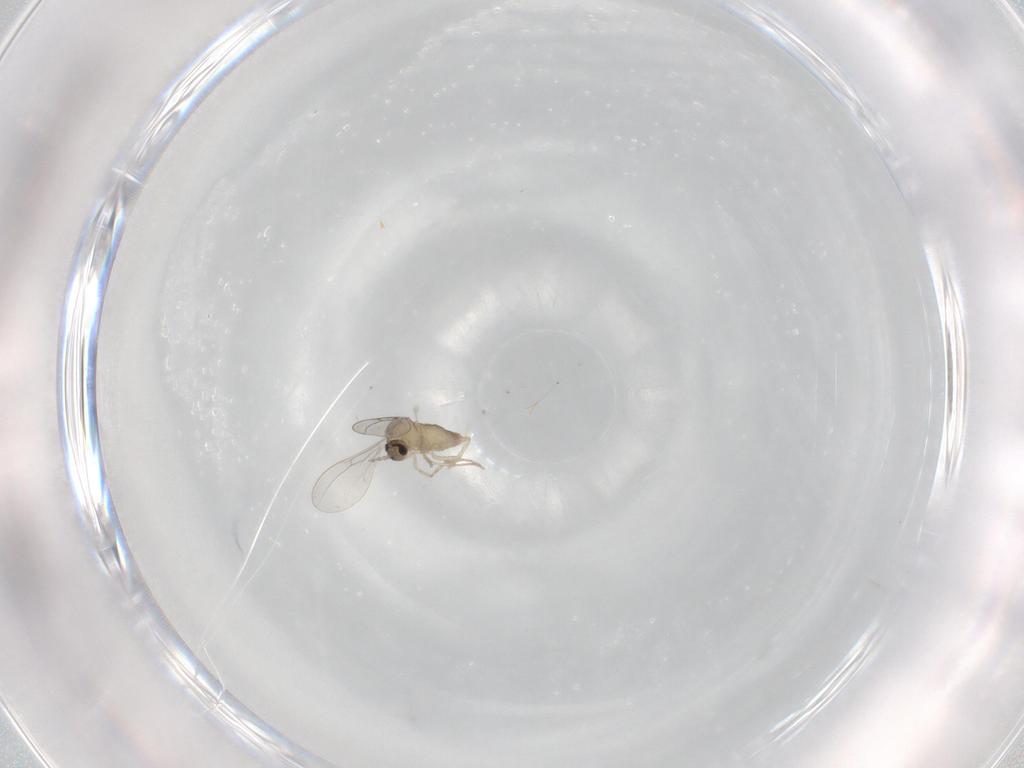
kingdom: Animalia
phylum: Arthropoda
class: Insecta
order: Diptera
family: Cecidomyiidae
